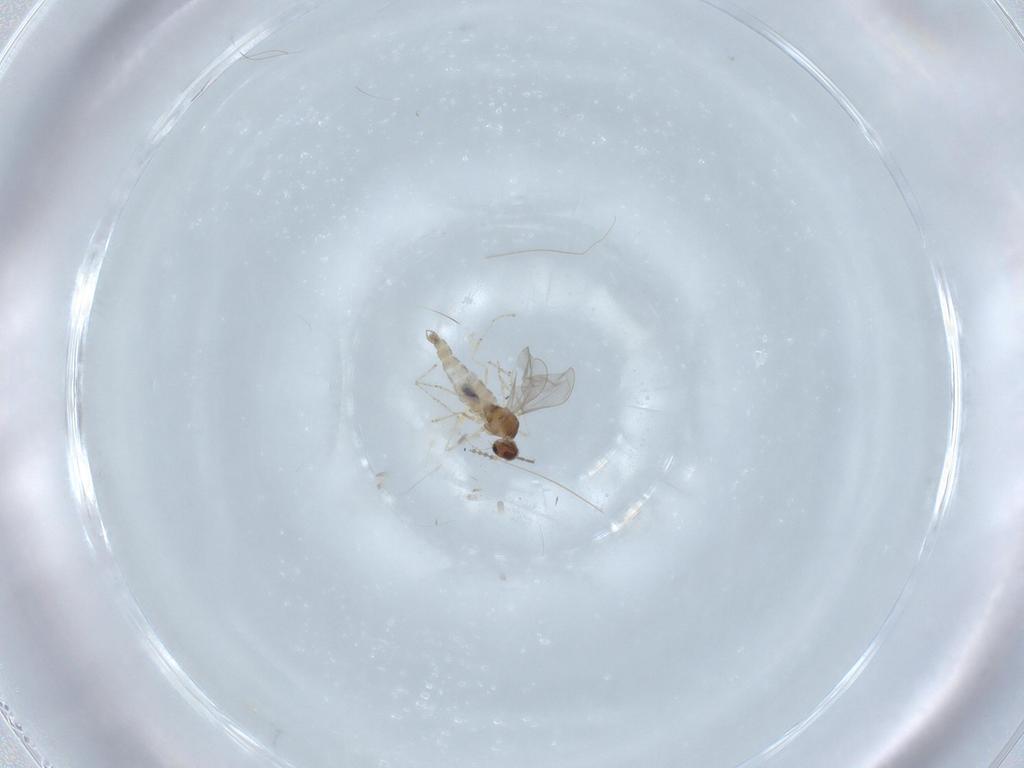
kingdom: Animalia
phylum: Arthropoda
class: Insecta
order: Diptera
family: Cecidomyiidae
